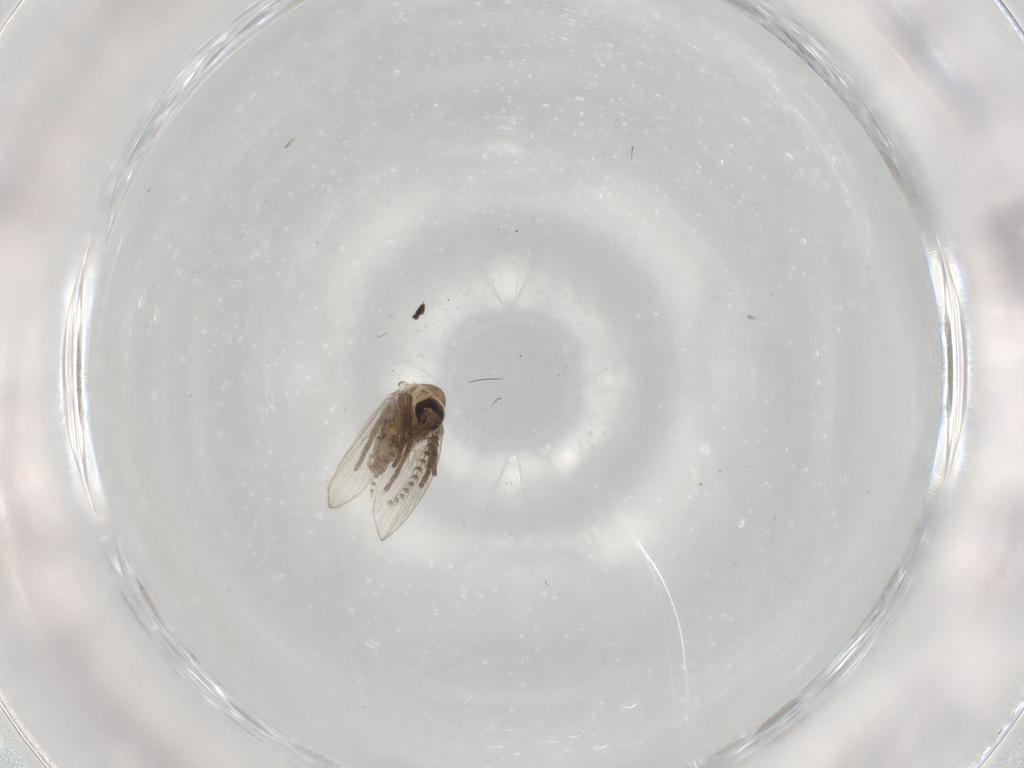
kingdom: Animalia
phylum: Arthropoda
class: Insecta
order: Diptera
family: Psychodidae
